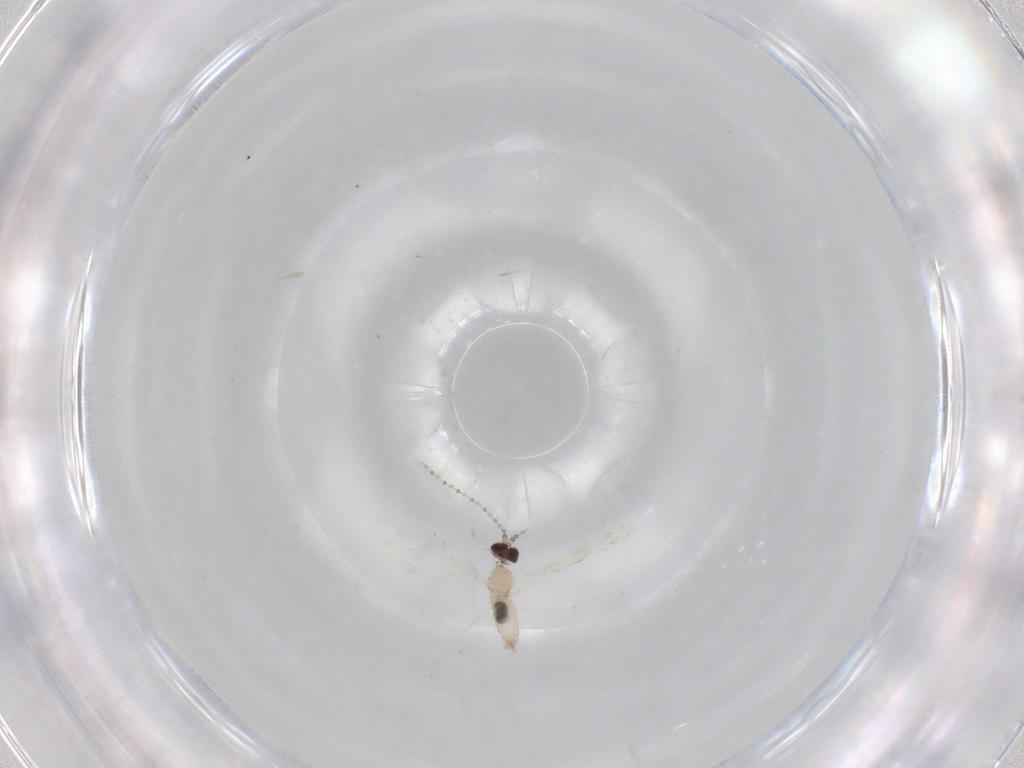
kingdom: Animalia
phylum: Arthropoda
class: Insecta
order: Diptera
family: Cecidomyiidae
